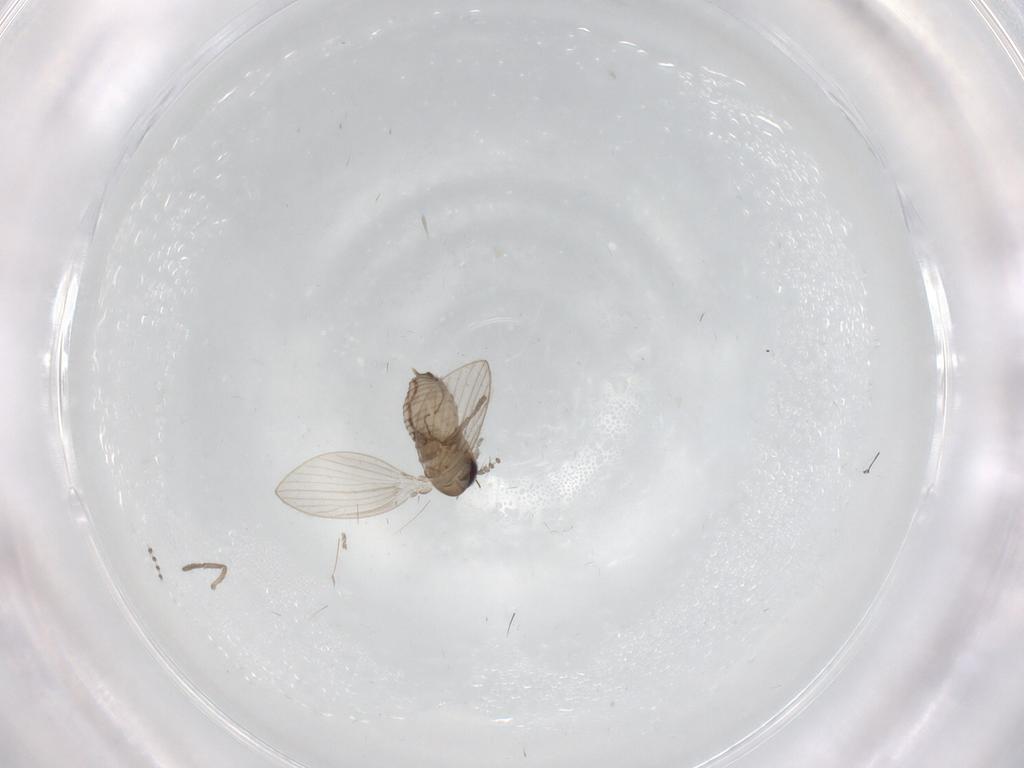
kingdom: Animalia
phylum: Arthropoda
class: Insecta
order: Diptera
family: Psychodidae
